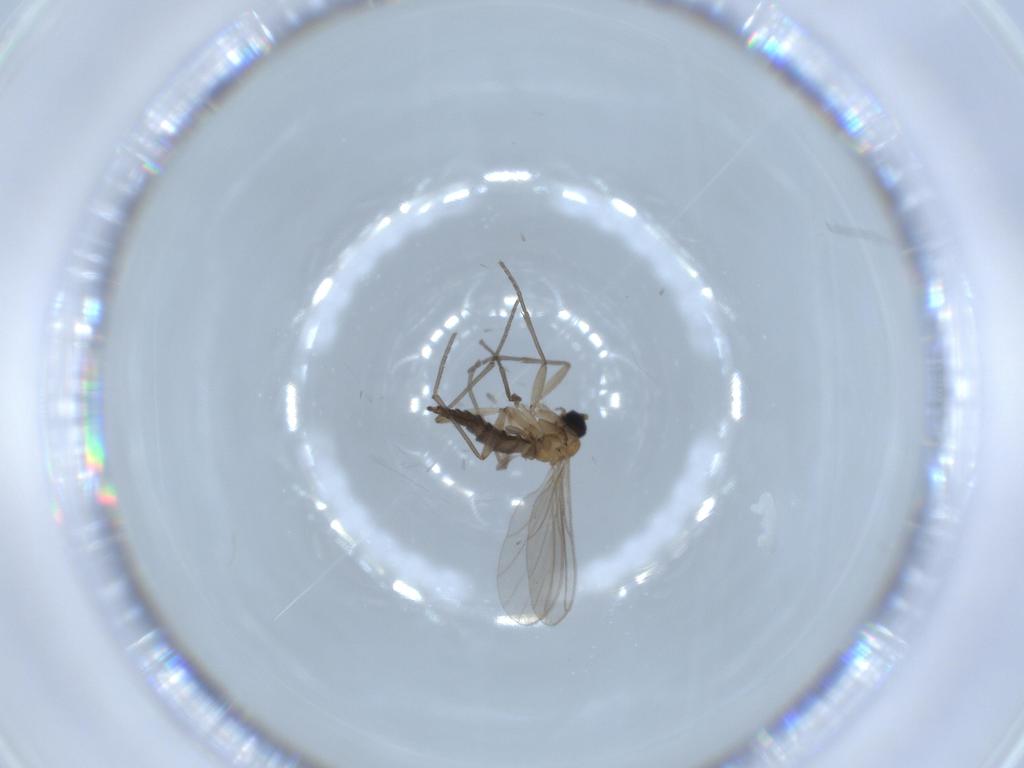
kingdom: Animalia
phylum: Arthropoda
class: Insecta
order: Diptera
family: Sciaridae
